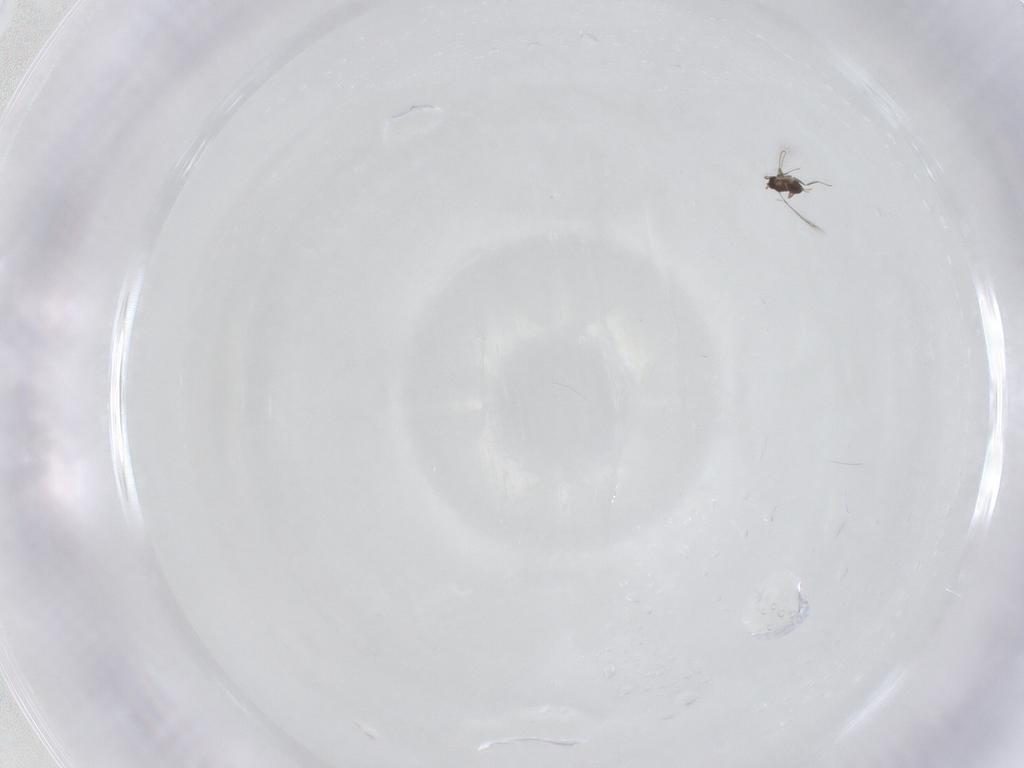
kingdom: Animalia
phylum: Arthropoda
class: Insecta
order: Hymenoptera
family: Mymaridae
